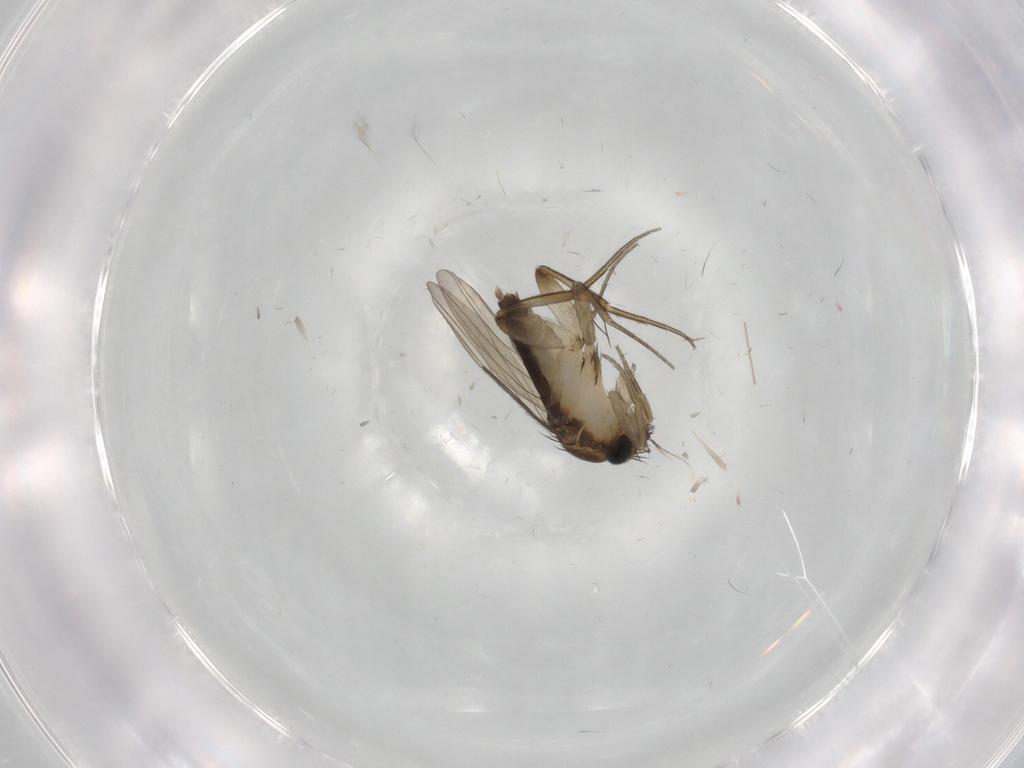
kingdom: Animalia
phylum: Arthropoda
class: Insecta
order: Diptera
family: Phoridae
